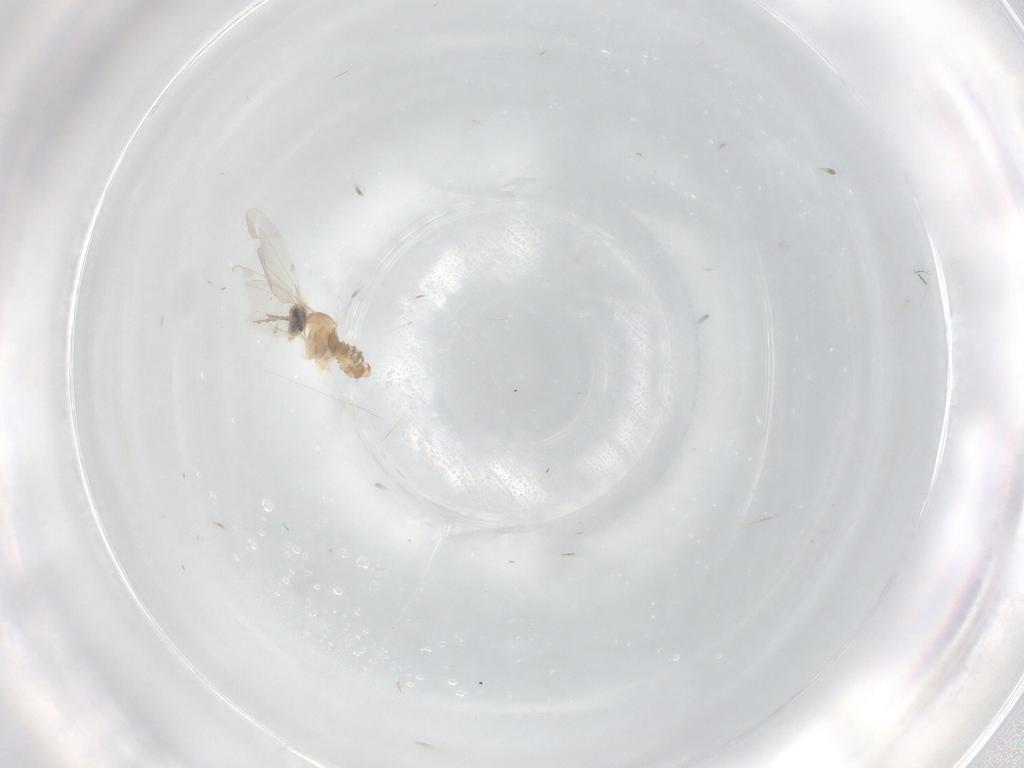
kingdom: Animalia
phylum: Arthropoda
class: Insecta
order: Diptera
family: Cecidomyiidae
